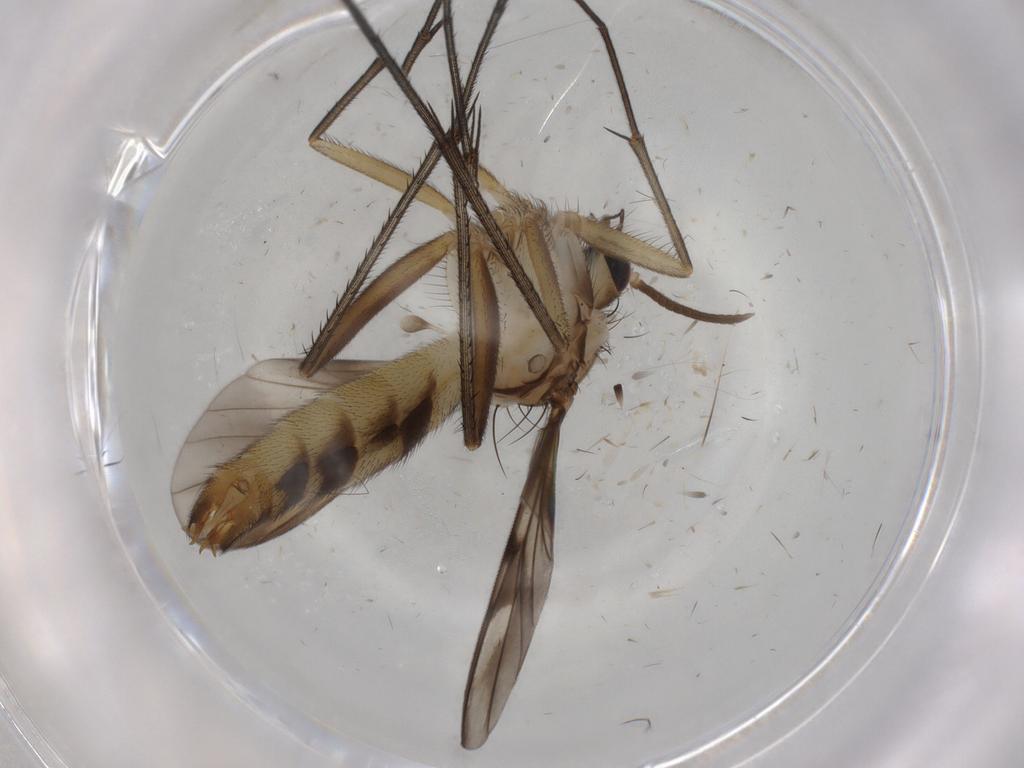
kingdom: Animalia
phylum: Arthropoda
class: Insecta
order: Diptera
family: Mycetophilidae
